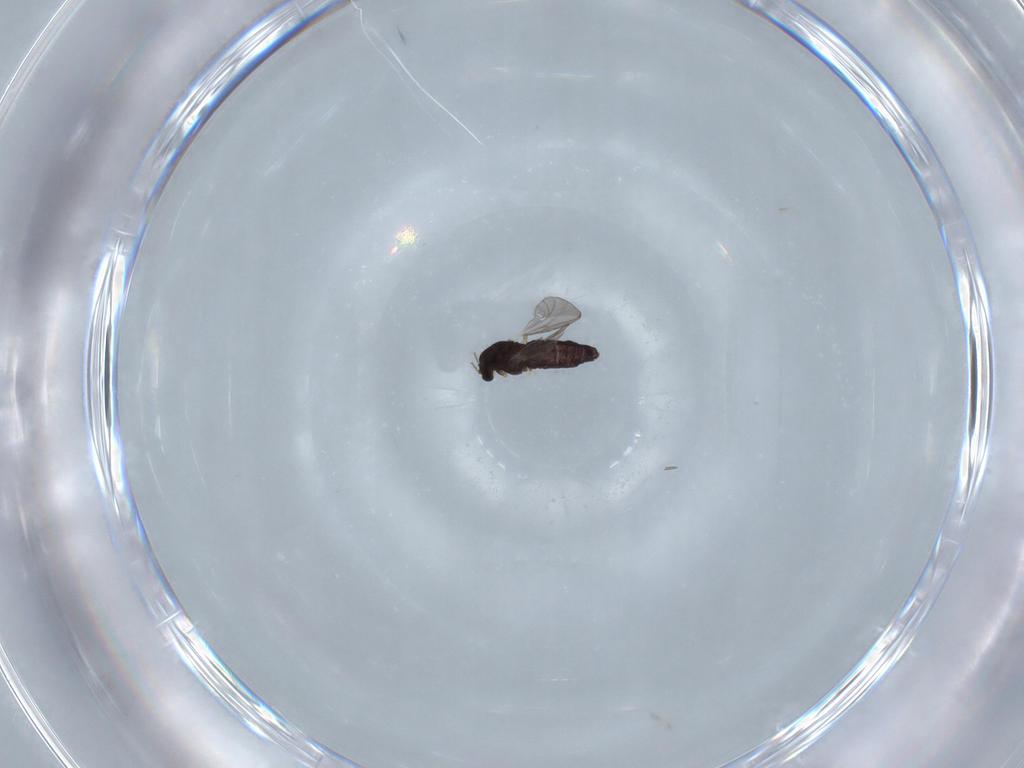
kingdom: Animalia
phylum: Arthropoda
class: Insecta
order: Diptera
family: Chironomidae
